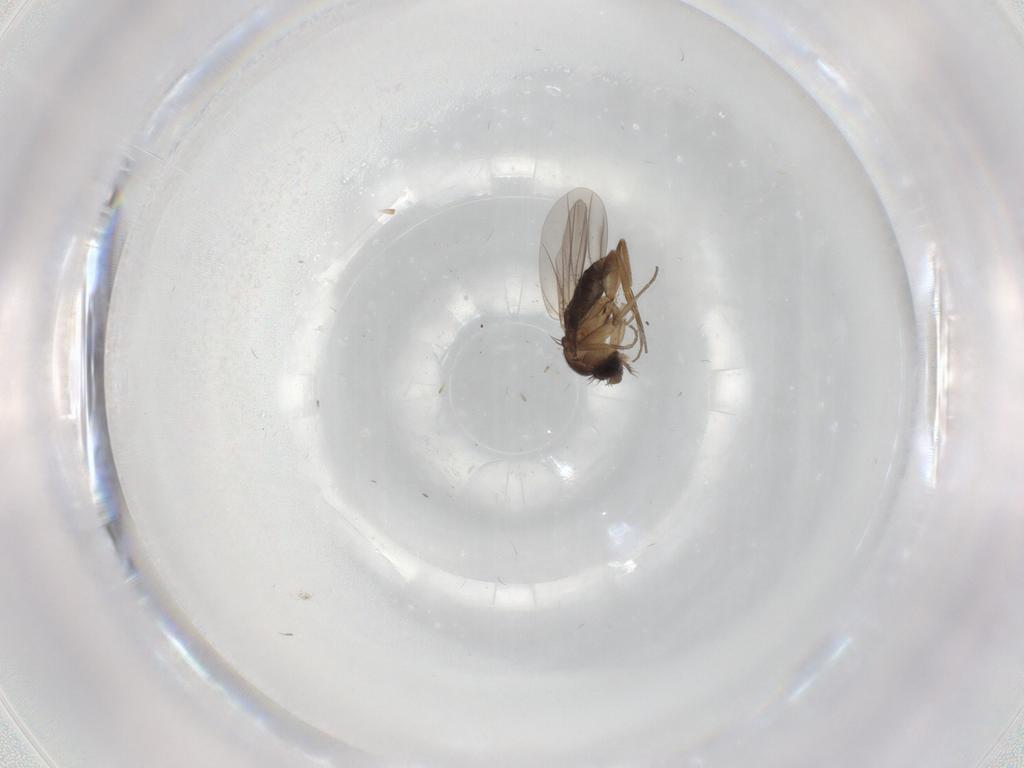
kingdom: Animalia
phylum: Arthropoda
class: Insecta
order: Diptera
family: Phoridae
